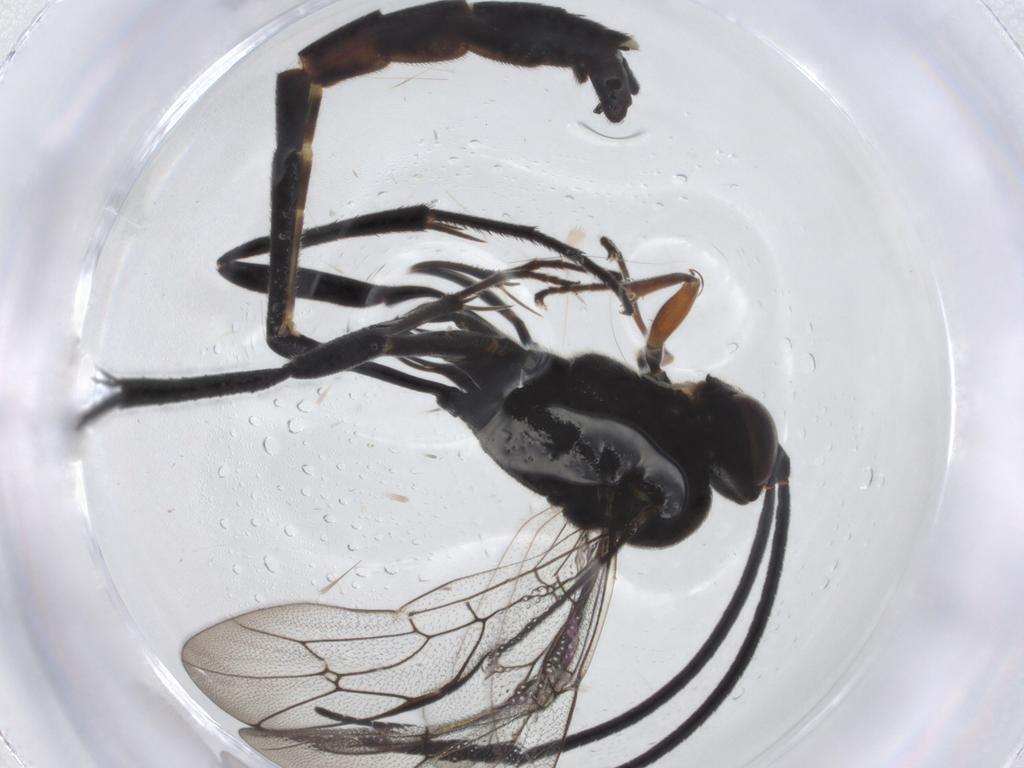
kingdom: Animalia
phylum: Arthropoda
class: Insecta
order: Hymenoptera
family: Ichneumonidae
